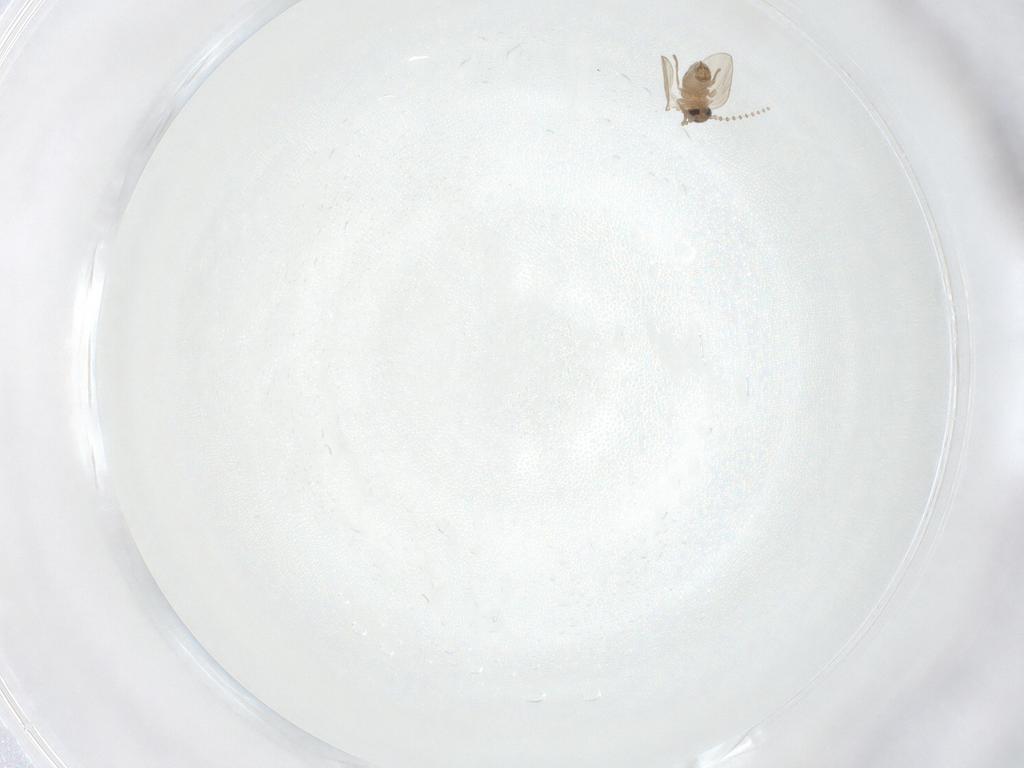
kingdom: Animalia
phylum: Arthropoda
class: Insecta
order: Diptera
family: Psychodidae
